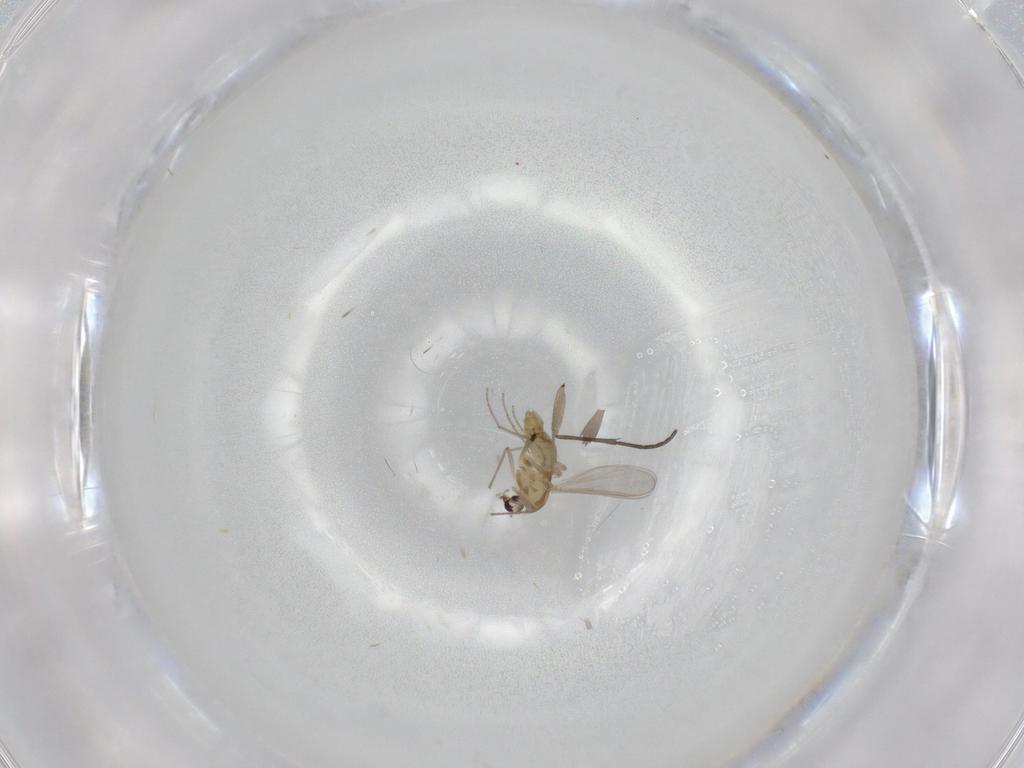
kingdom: Animalia
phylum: Arthropoda
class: Insecta
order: Diptera
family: Chironomidae
